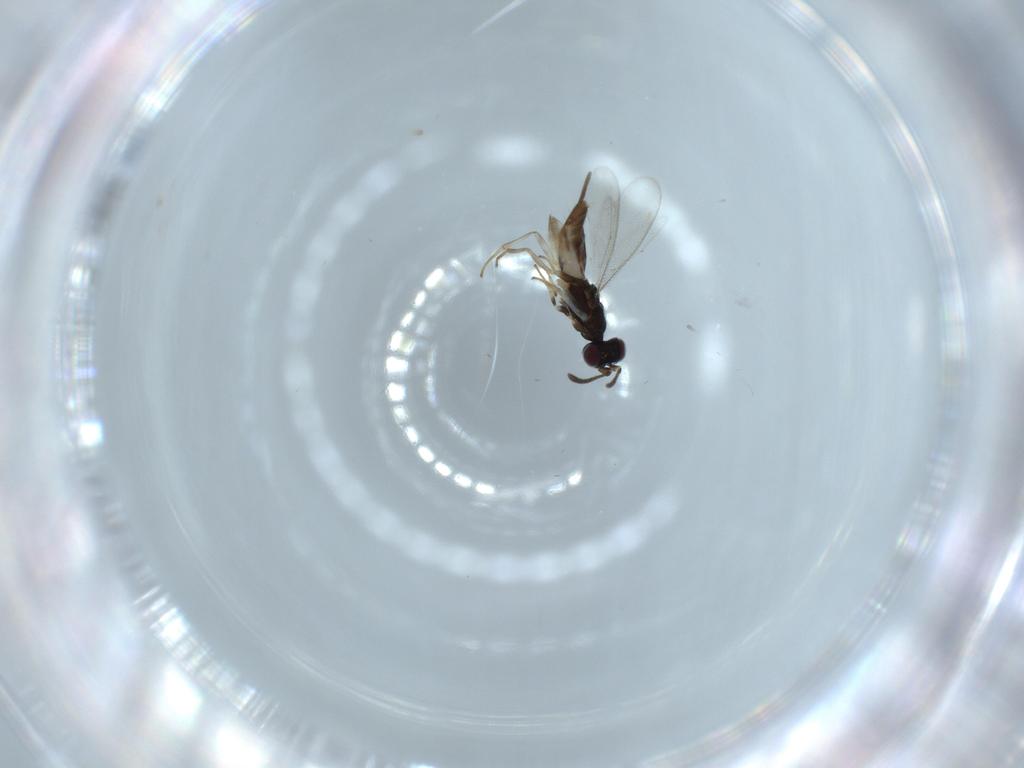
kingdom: Animalia
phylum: Arthropoda
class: Insecta
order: Hymenoptera
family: Eupelmidae
